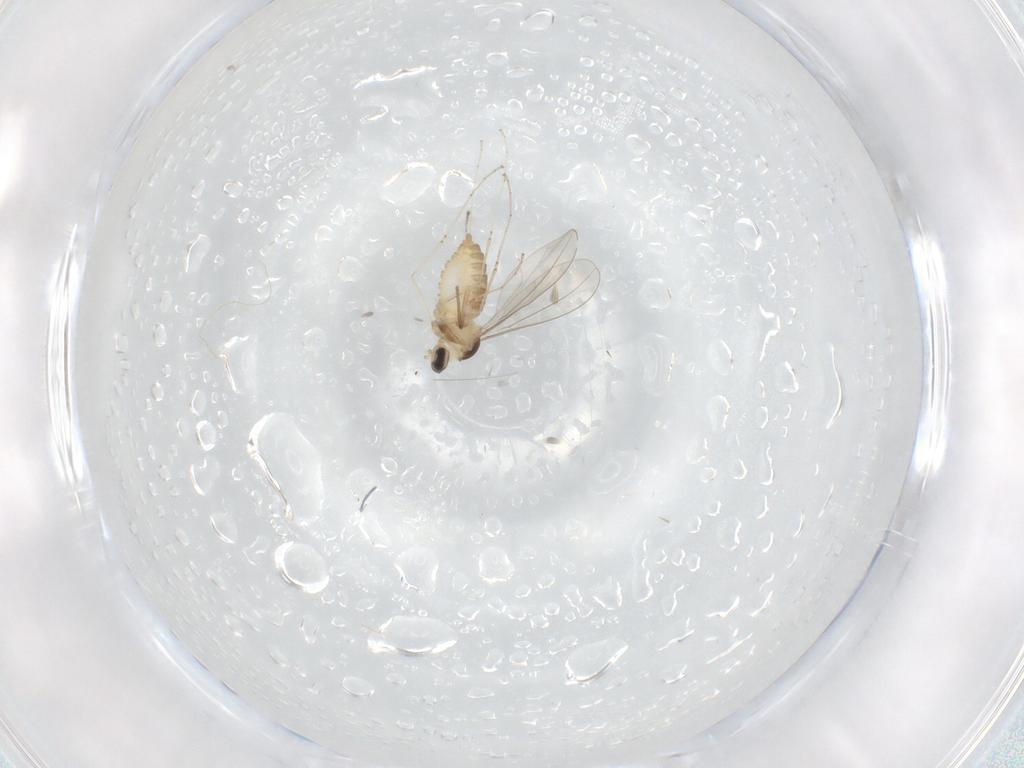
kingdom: Animalia
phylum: Arthropoda
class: Insecta
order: Diptera
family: Cecidomyiidae
